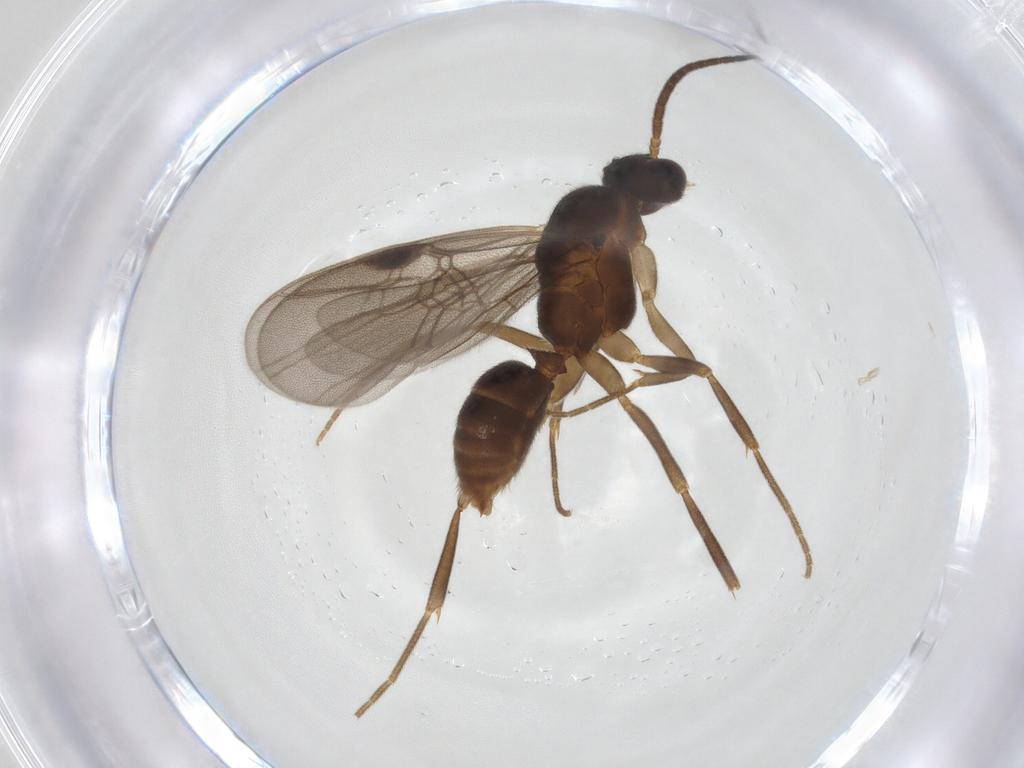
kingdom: Animalia
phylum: Arthropoda
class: Insecta
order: Hymenoptera
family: Formicidae
